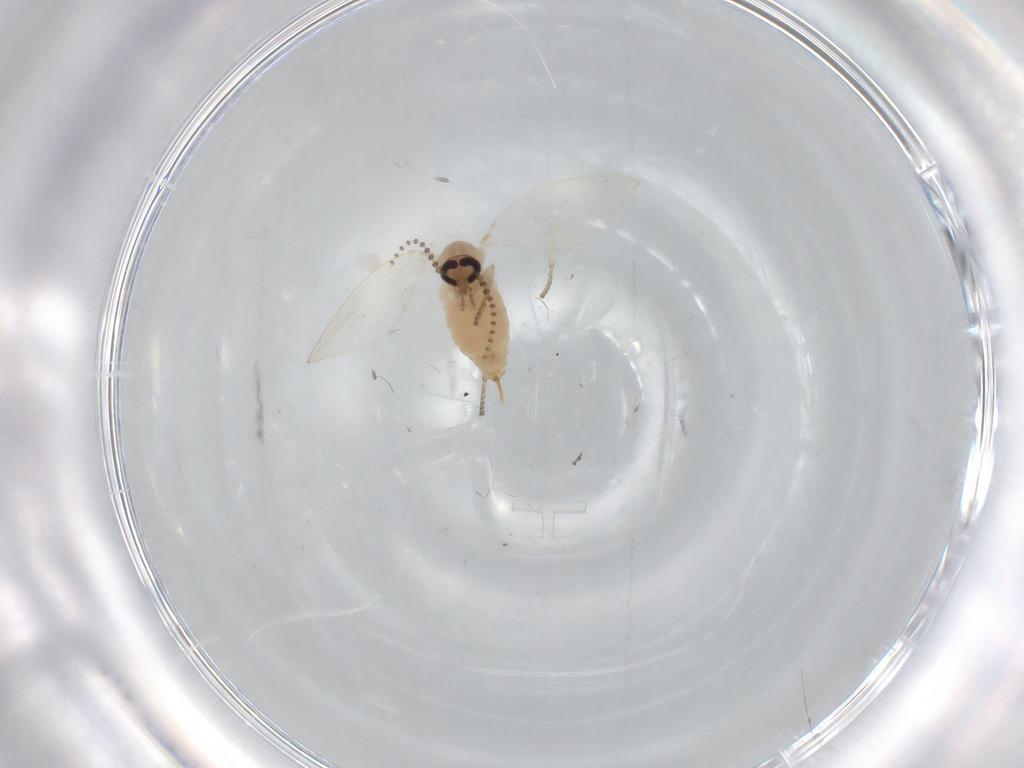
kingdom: Animalia
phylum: Arthropoda
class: Insecta
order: Diptera
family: Psychodidae
